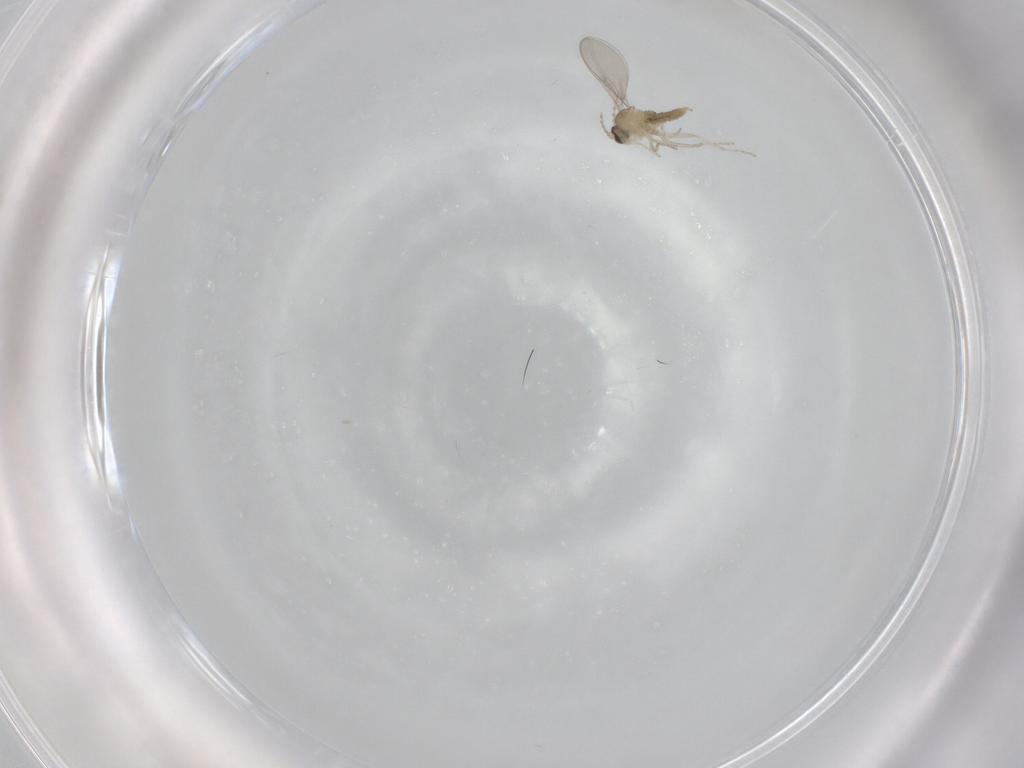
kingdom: Animalia
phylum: Arthropoda
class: Insecta
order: Diptera
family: Cecidomyiidae
